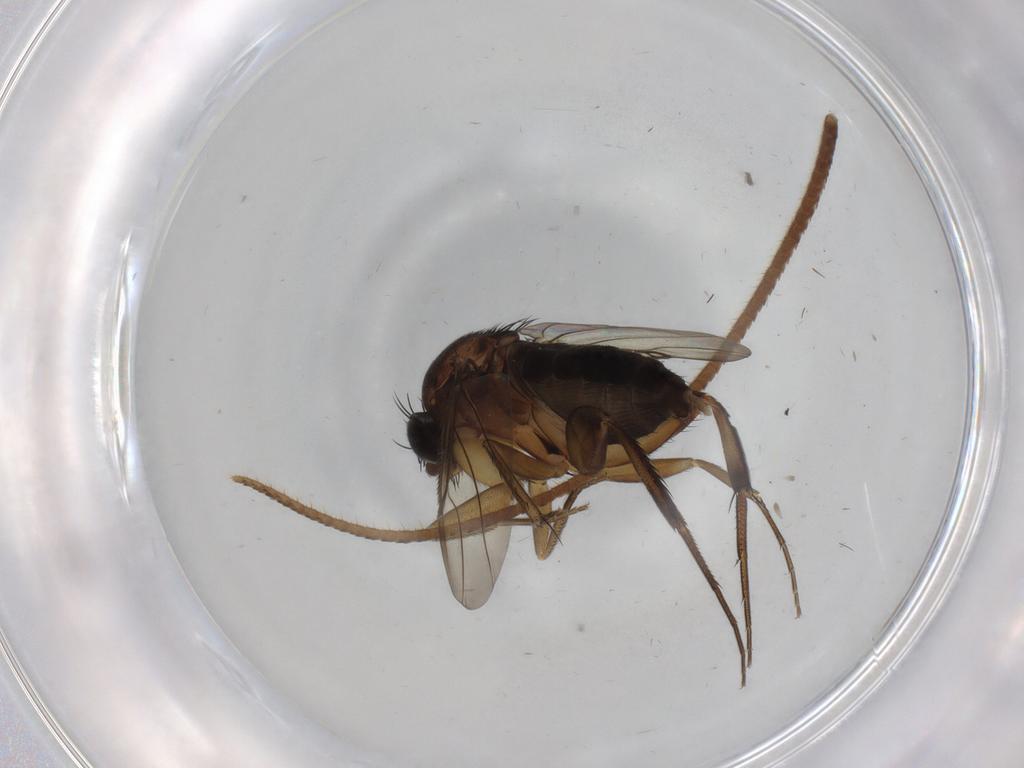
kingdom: Animalia
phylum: Arthropoda
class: Insecta
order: Diptera
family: Phoridae
